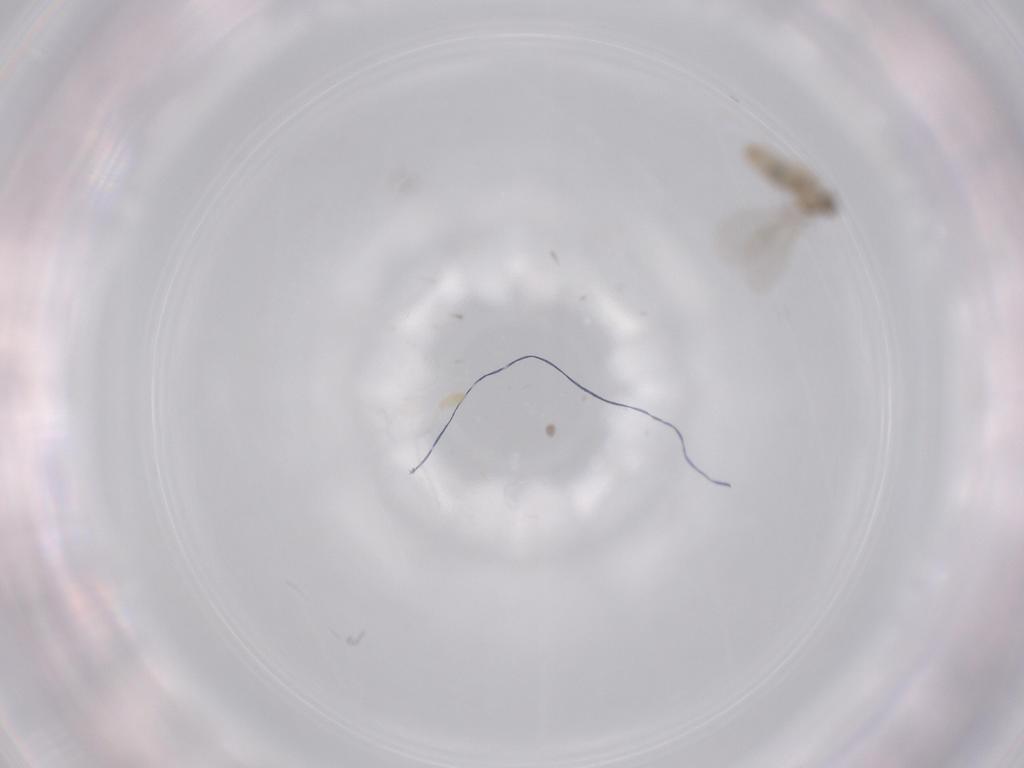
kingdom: Animalia
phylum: Arthropoda
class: Insecta
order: Diptera
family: Cecidomyiidae
